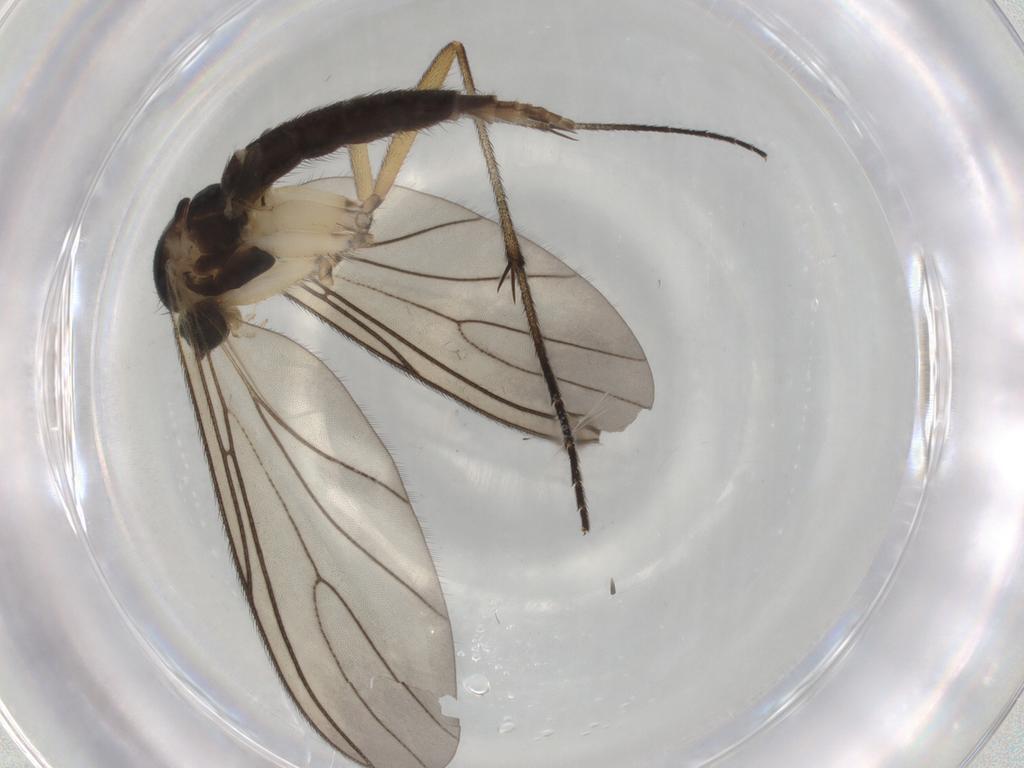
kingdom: Animalia
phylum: Arthropoda
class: Insecta
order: Diptera
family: Sciaridae
